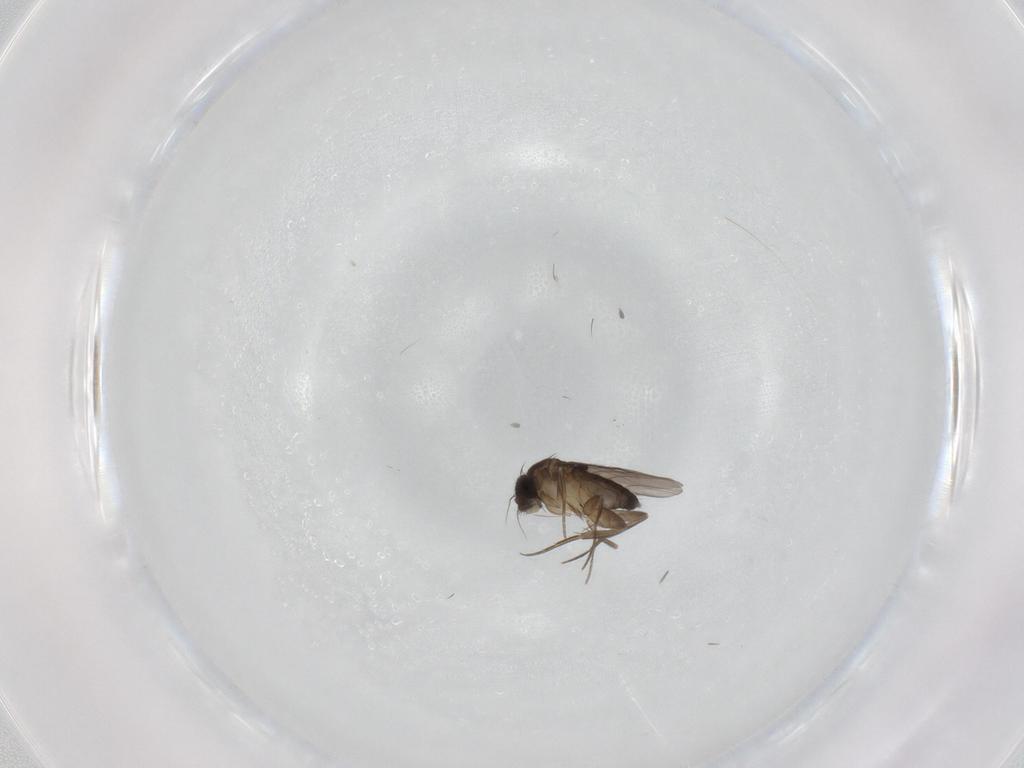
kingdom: Animalia
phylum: Arthropoda
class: Insecta
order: Diptera
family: Phoridae
